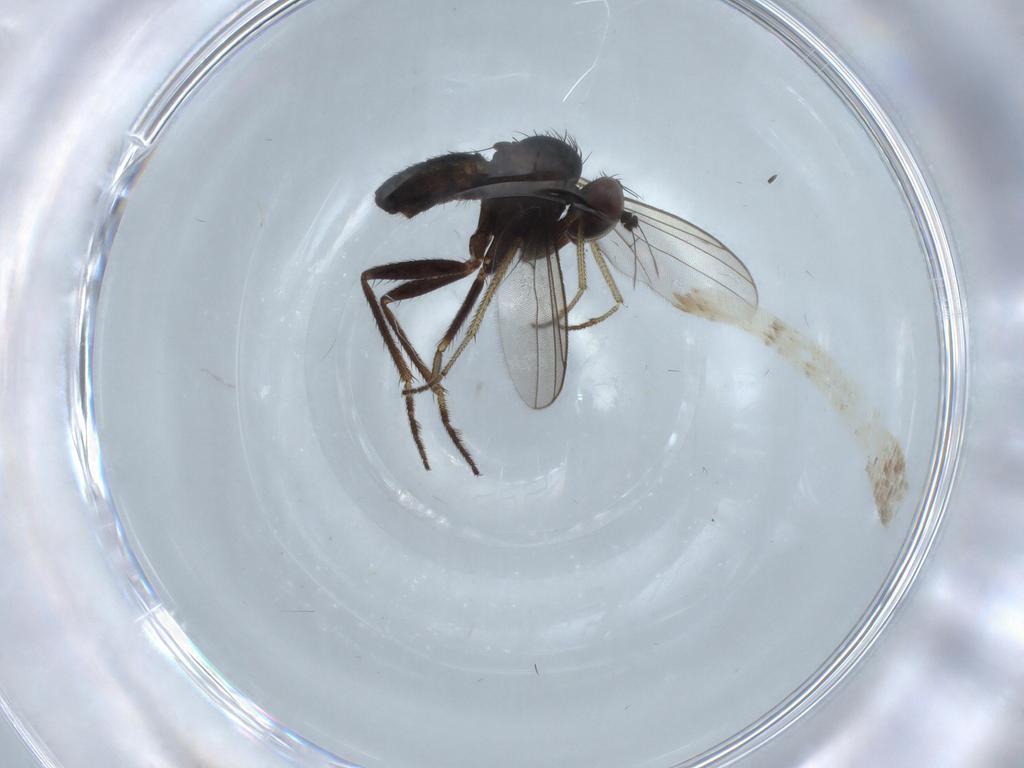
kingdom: Animalia
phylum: Arthropoda
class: Insecta
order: Diptera
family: Dolichopodidae
